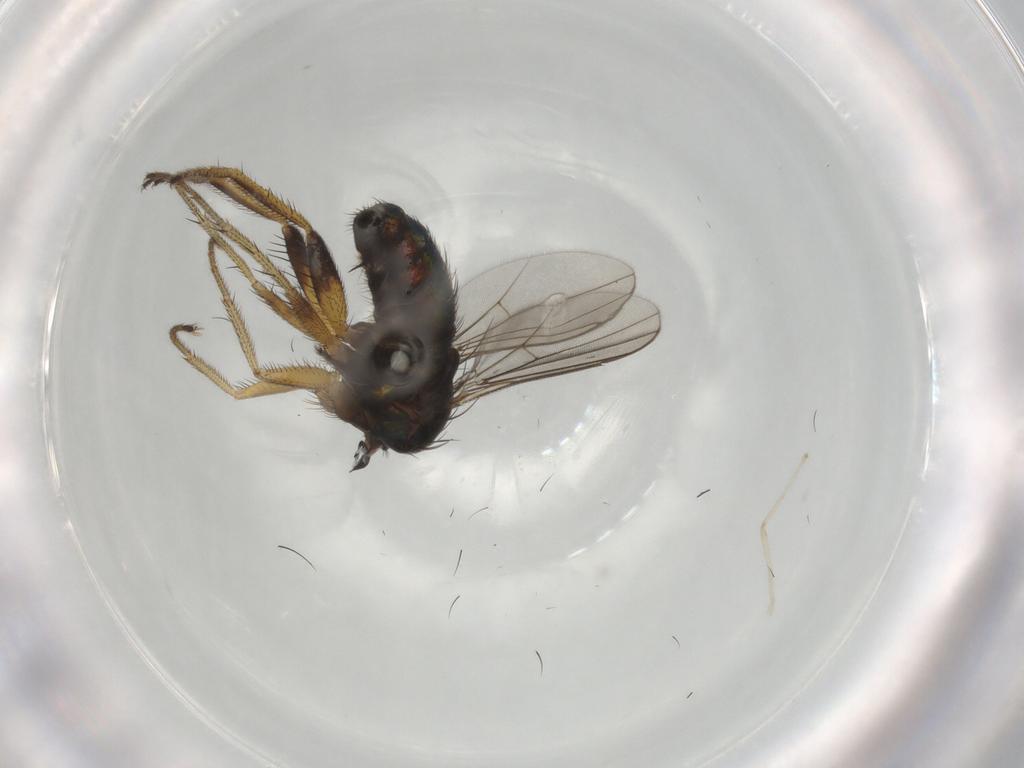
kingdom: Animalia
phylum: Arthropoda
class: Insecta
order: Diptera
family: Dolichopodidae
